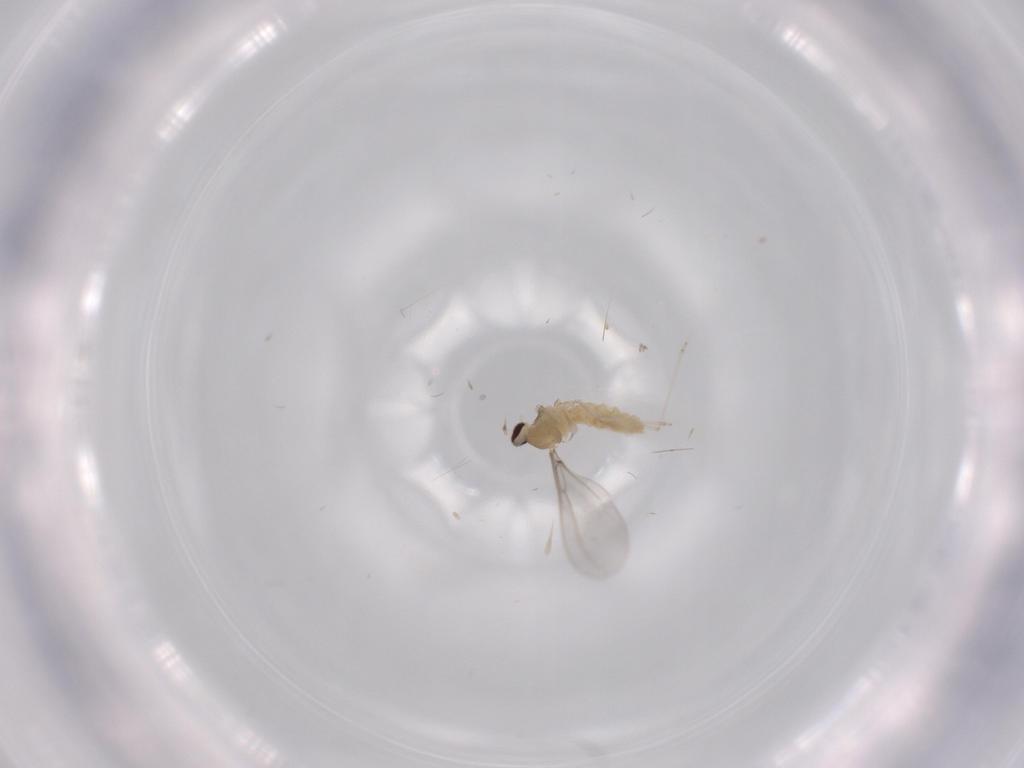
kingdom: Animalia
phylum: Arthropoda
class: Insecta
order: Diptera
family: Cecidomyiidae
